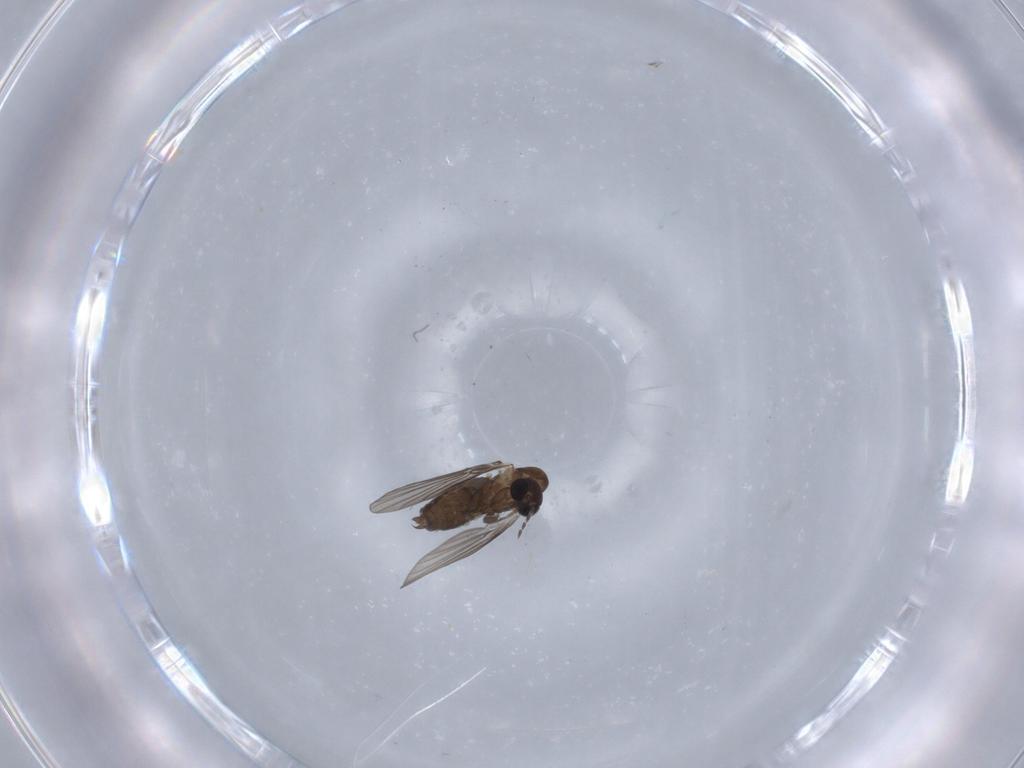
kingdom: Animalia
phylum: Arthropoda
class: Insecta
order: Diptera
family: Psychodidae
